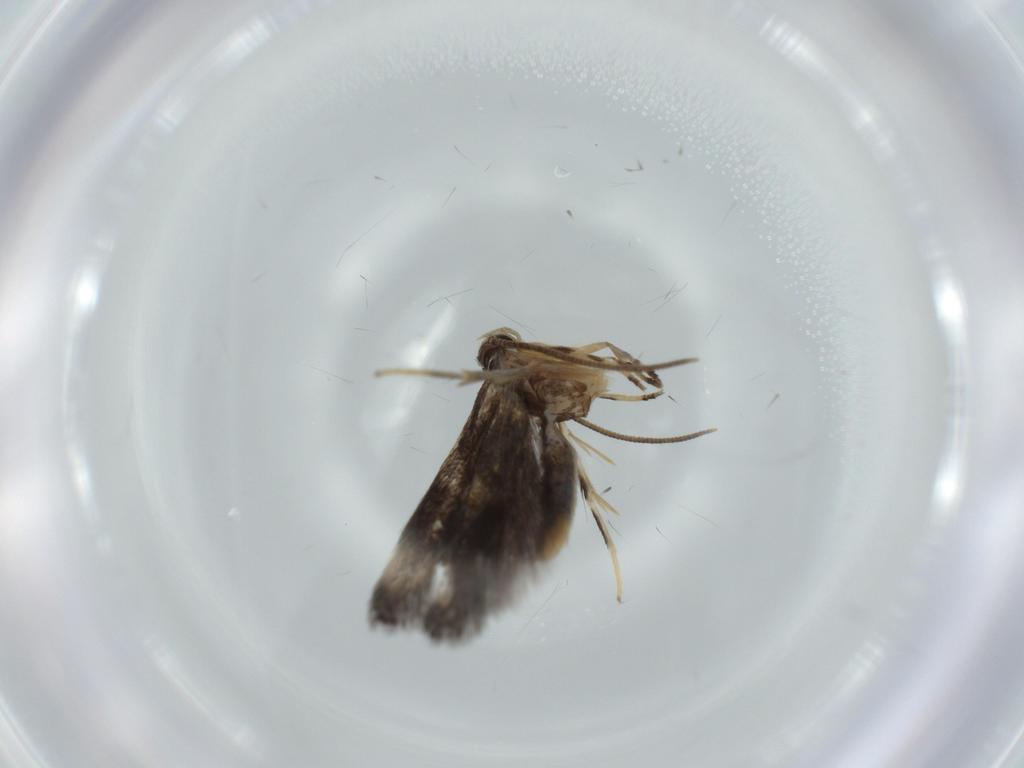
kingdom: Animalia
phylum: Arthropoda
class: Insecta
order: Lepidoptera
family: Cosmopterigidae
